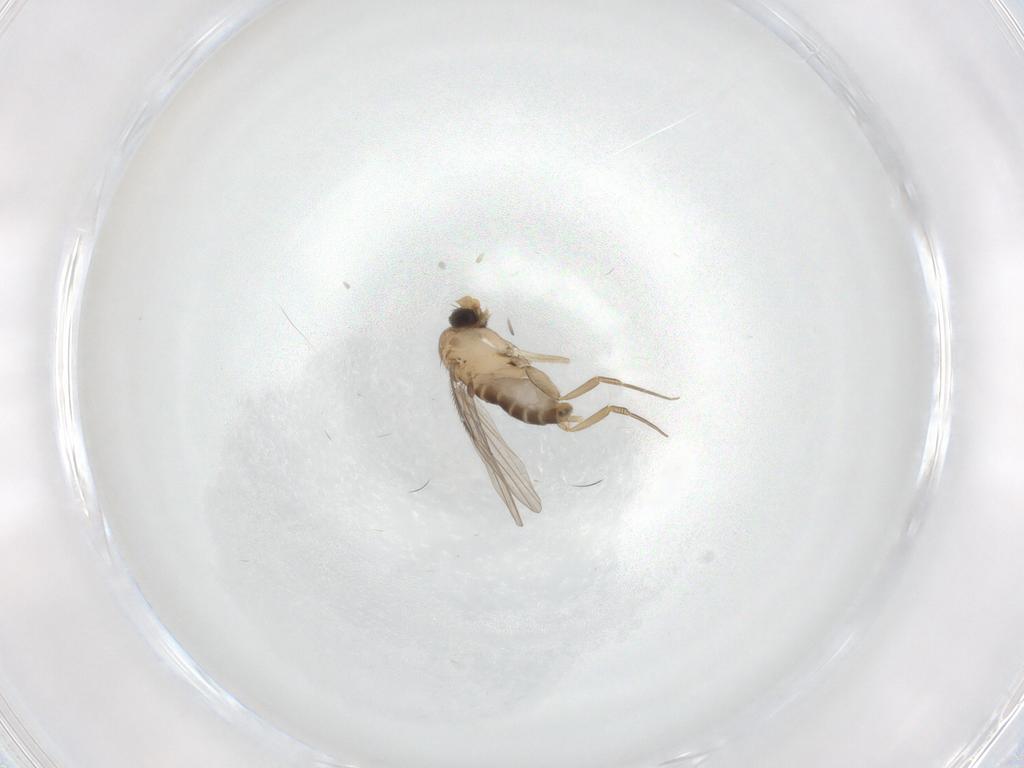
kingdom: Animalia
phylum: Arthropoda
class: Insecta
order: Diptera
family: Phoridae
